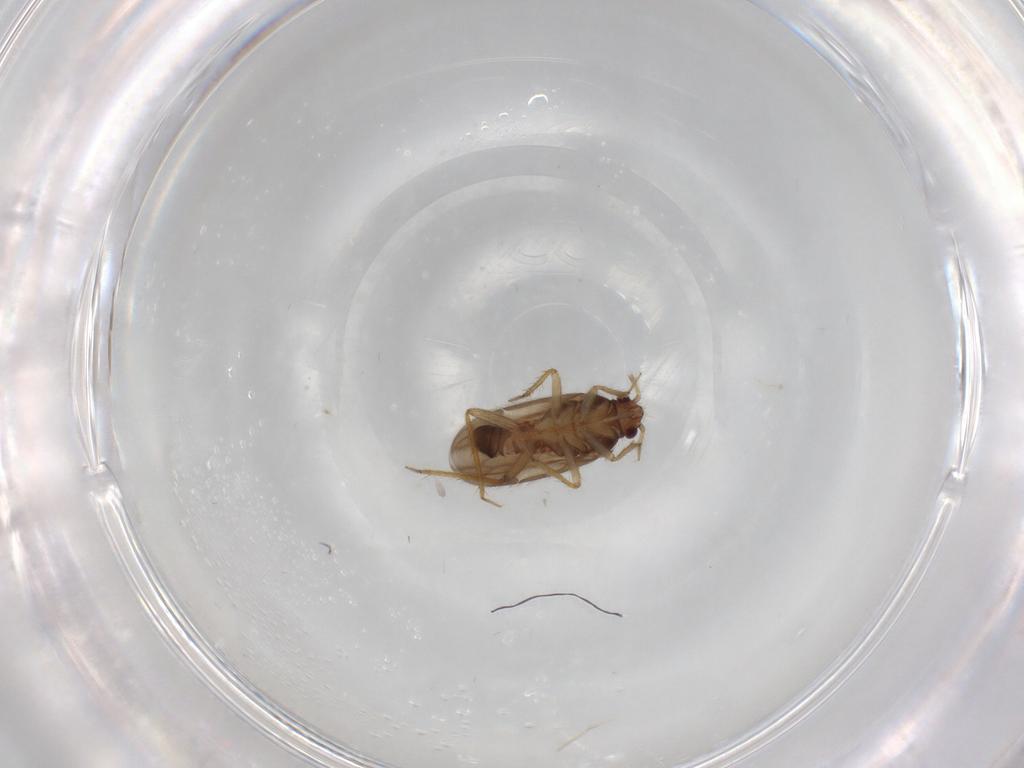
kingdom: Animalia
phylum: Arthropoda
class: Insecta
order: Hemiptera
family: Ceratocombidae
